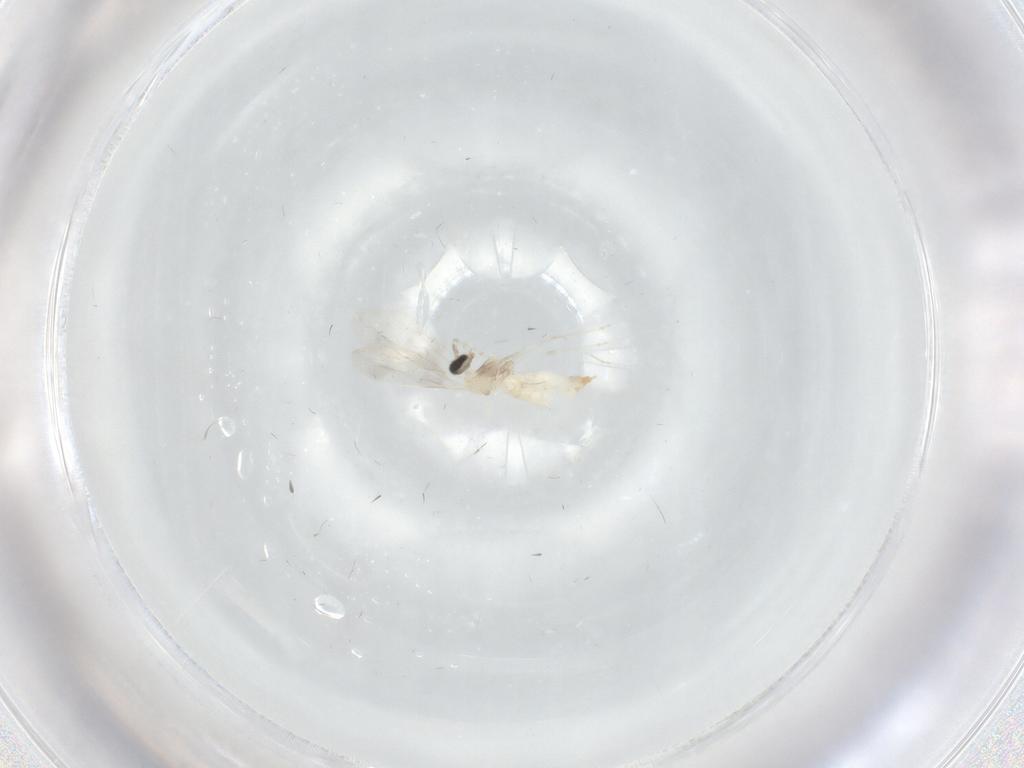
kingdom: Animalia
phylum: Arthropoda
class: Insecta
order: Diptera
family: Cecidomyiidae
